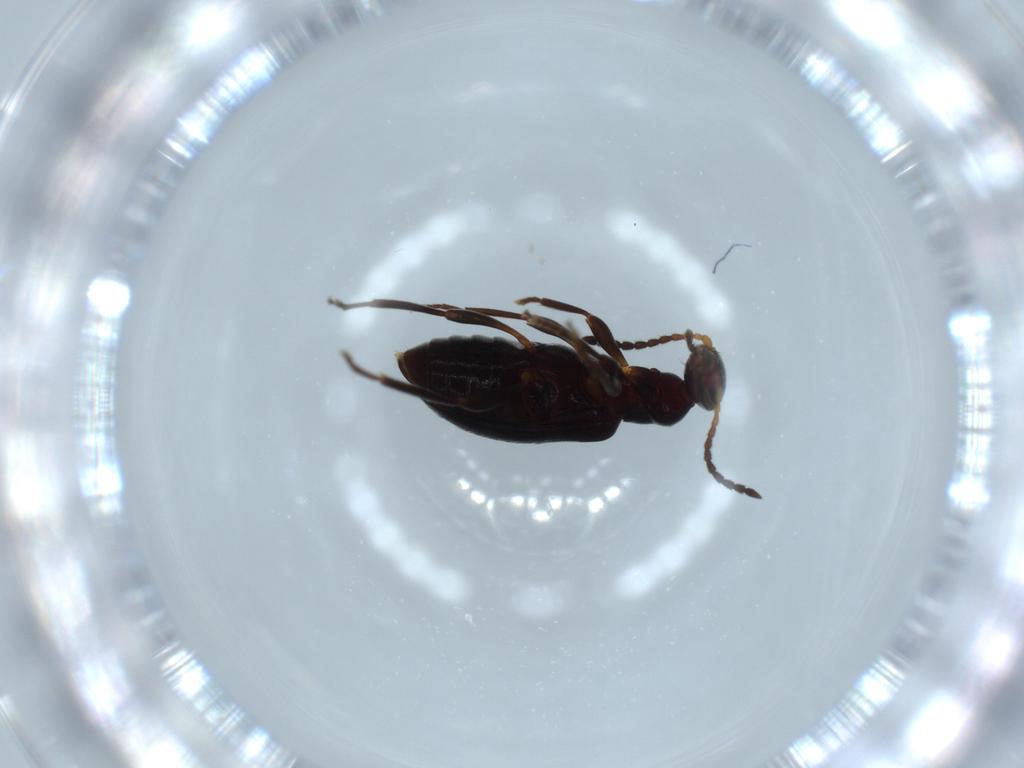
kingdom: Animalia
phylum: Arthropoda
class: Insecta
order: Coleoptera
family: Anthicidae
